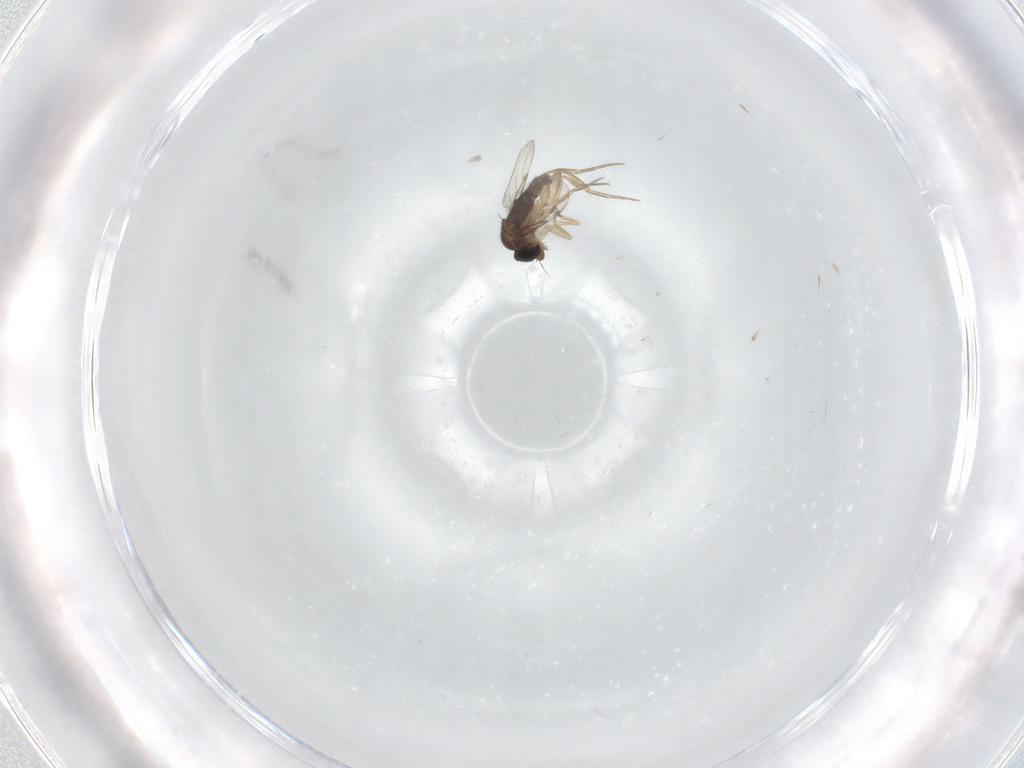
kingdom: Animalia
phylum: Arthropoda
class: Insecta
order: Diptera
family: Phoridae
